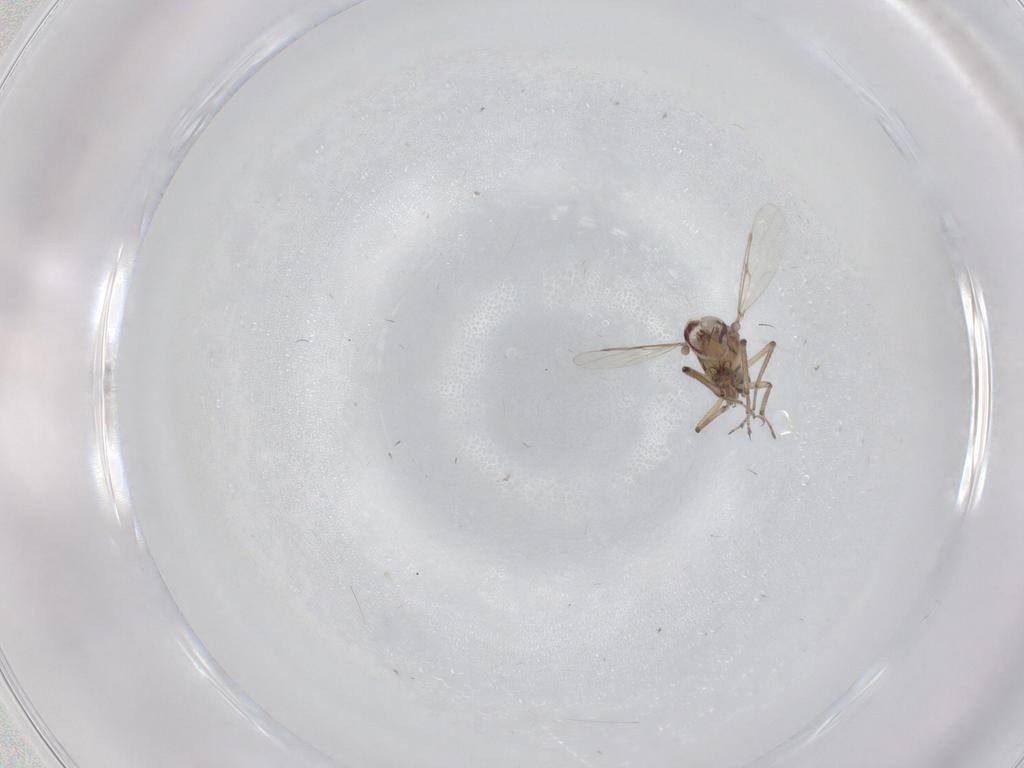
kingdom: Animalia
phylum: Arthropoda
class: Insecta
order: Diptera
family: Ceratopogonidae
